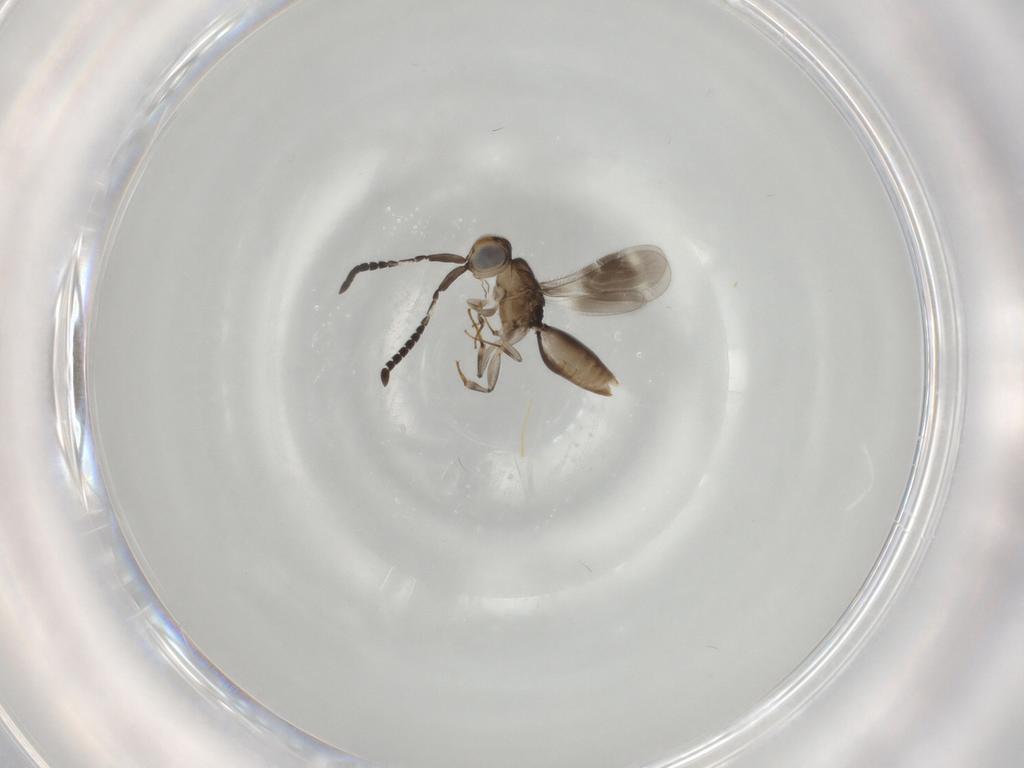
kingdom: Animalia
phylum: Arthropoda
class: Insecta
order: Hymenoptera
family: Megaspilidae
